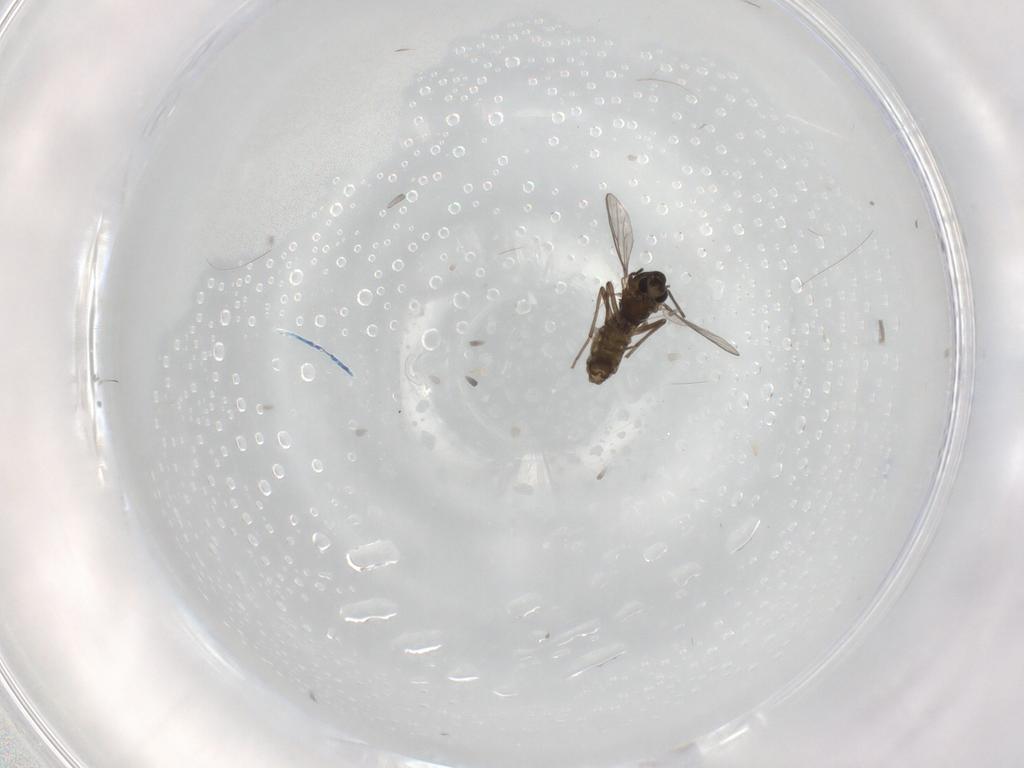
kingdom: Animalia
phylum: Arthropoda
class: Insecta
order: Diptera
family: Chironomidae
